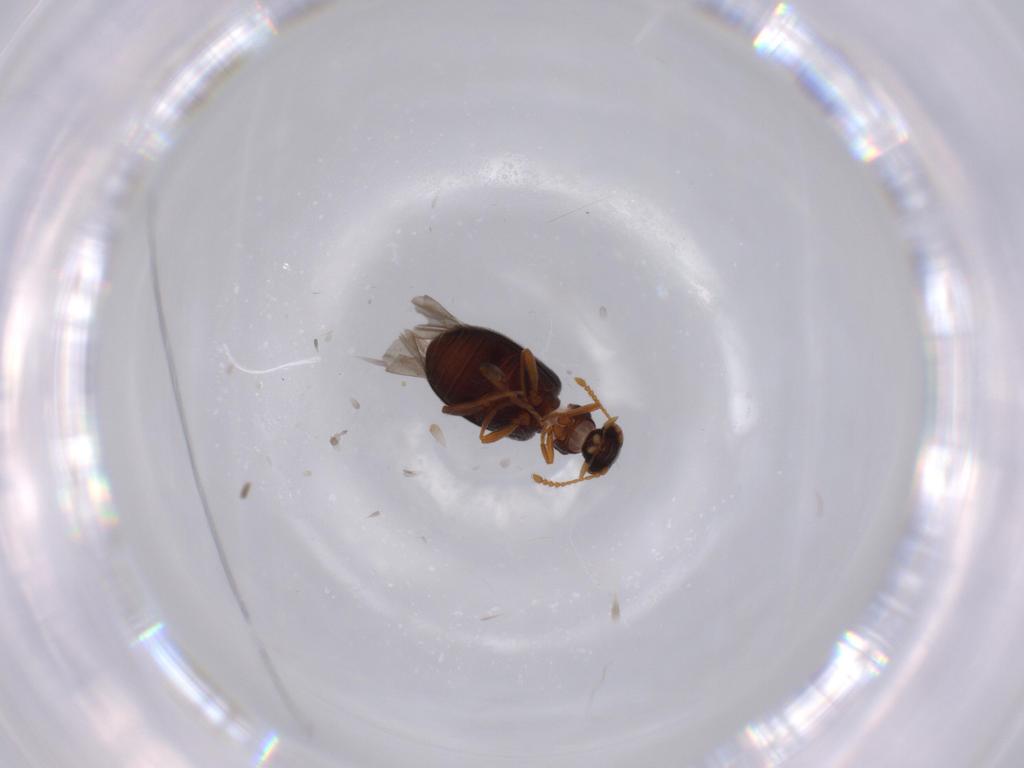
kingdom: Animalia
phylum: Arthropoda
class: Insecta
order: Coleoptera
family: Aderidae
